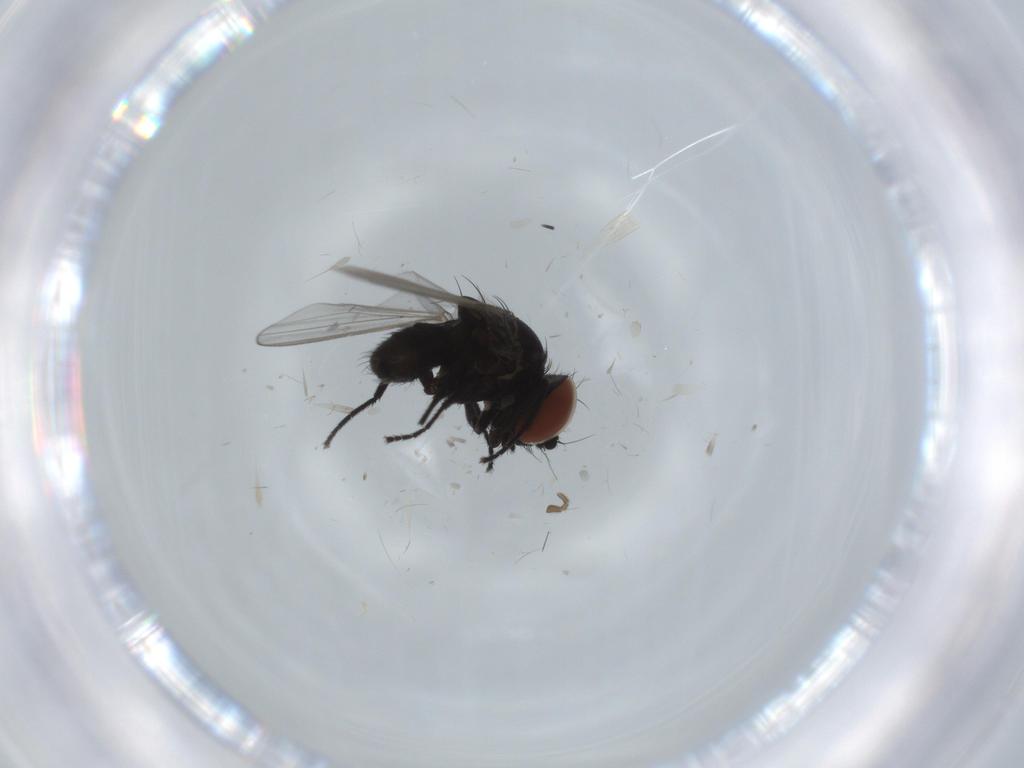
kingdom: Animalia
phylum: Arthropoda
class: Insecta
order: Diptera
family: Milichiidae
